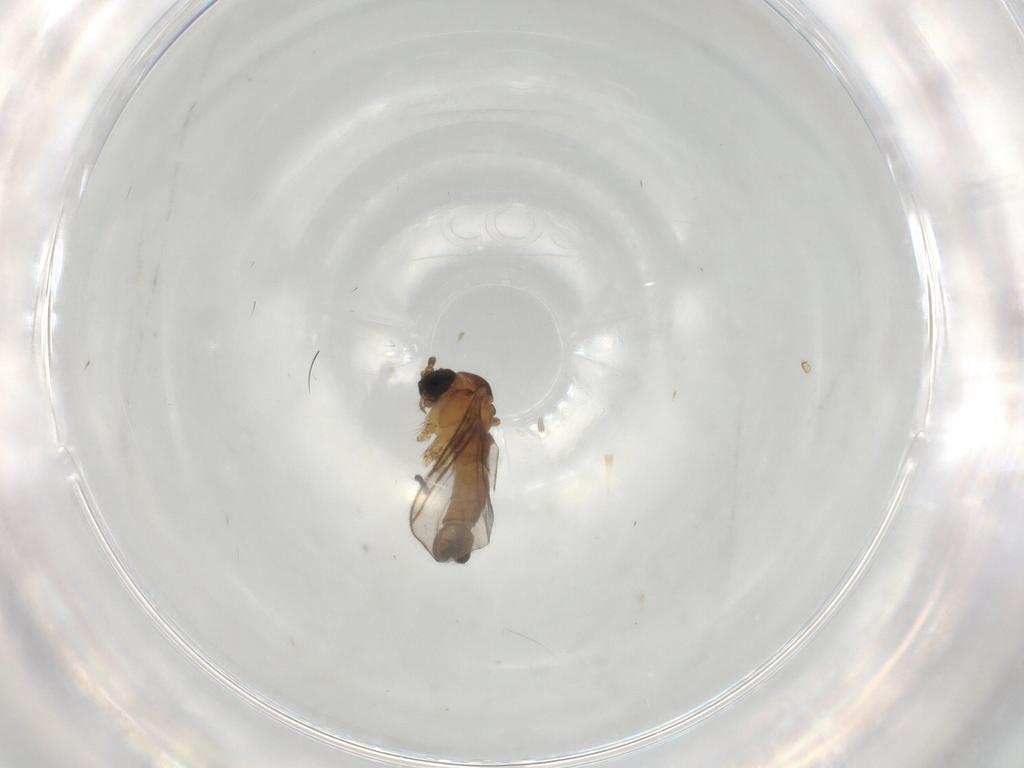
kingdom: Animalia
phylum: Arthropoda
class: Insecta
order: Diptera
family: Sciaridae
